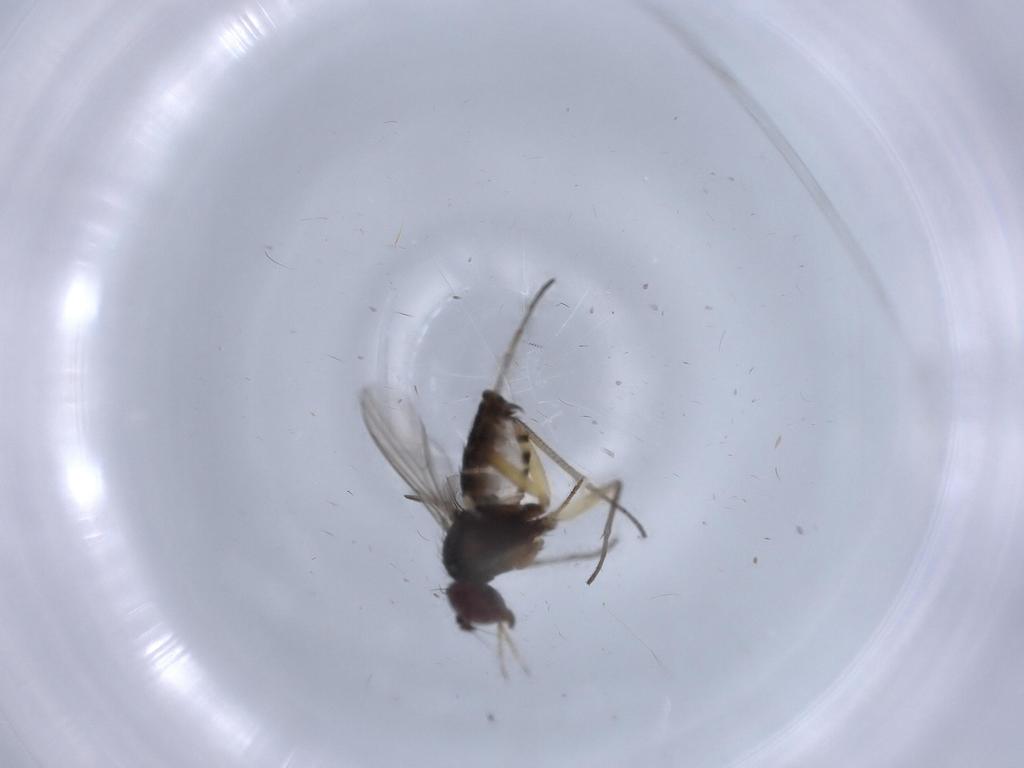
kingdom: Animalia
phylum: Arthropoda
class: Insecta
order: Diptera
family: Dolichopodidae
